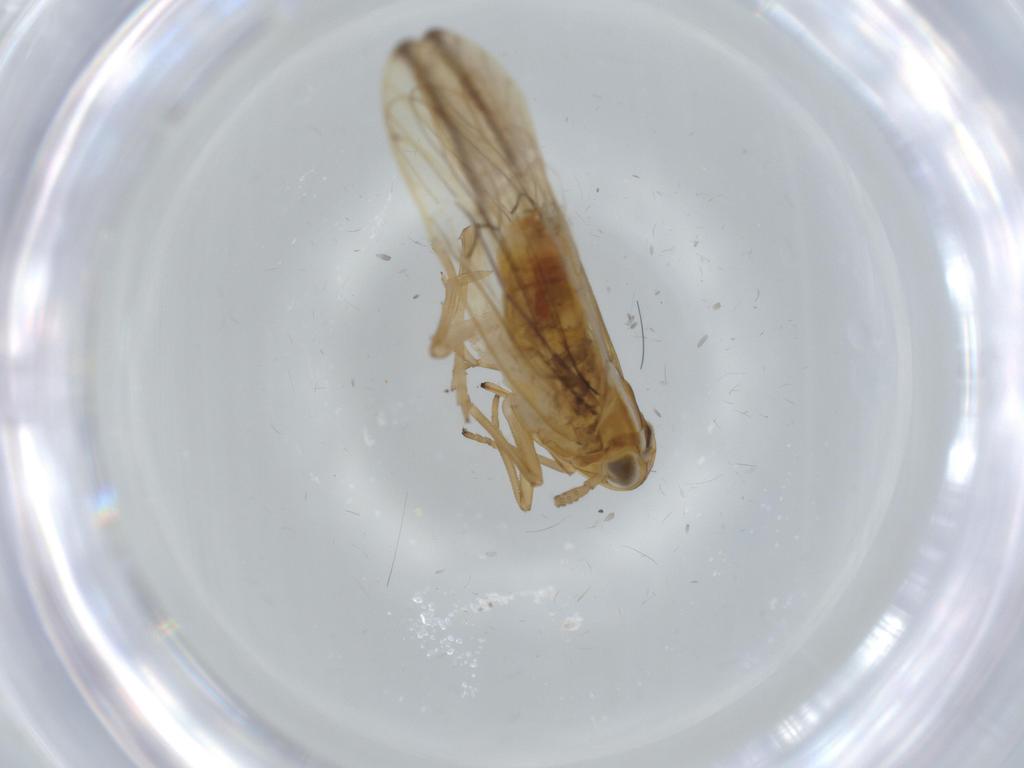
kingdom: Animalia
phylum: Arthropoda
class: Insecta
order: Hemiptera
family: Delphacidae
